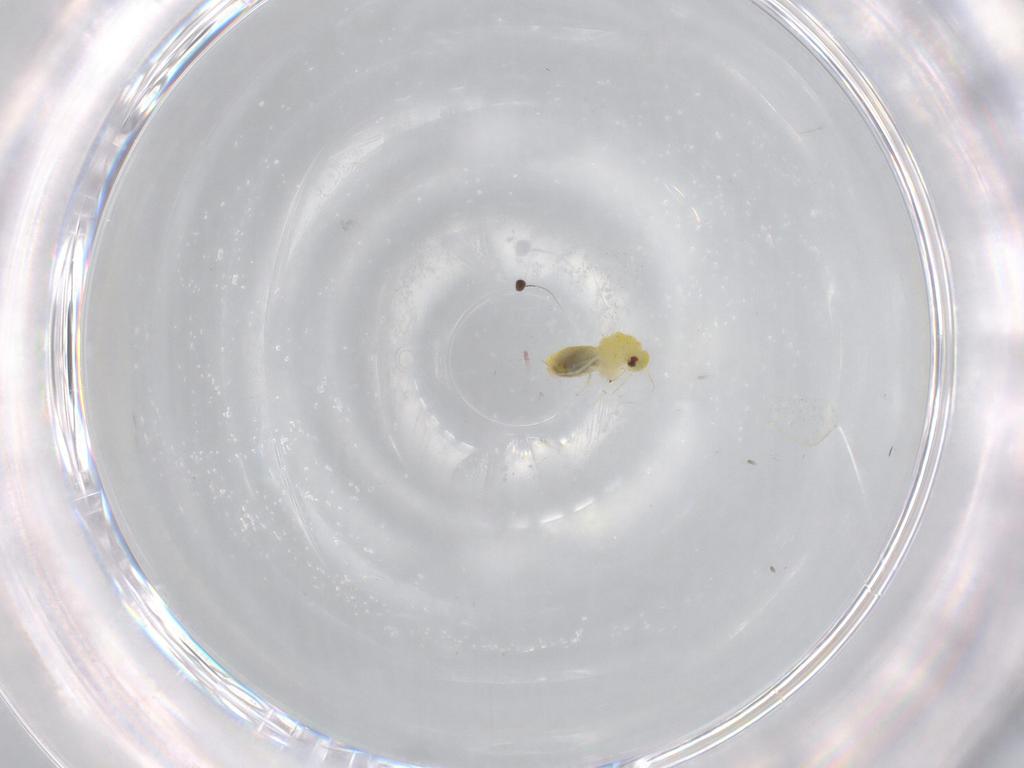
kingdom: Animalia
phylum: Arthropoda
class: Insecta
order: Hemiptera
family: Aleyrodidae
